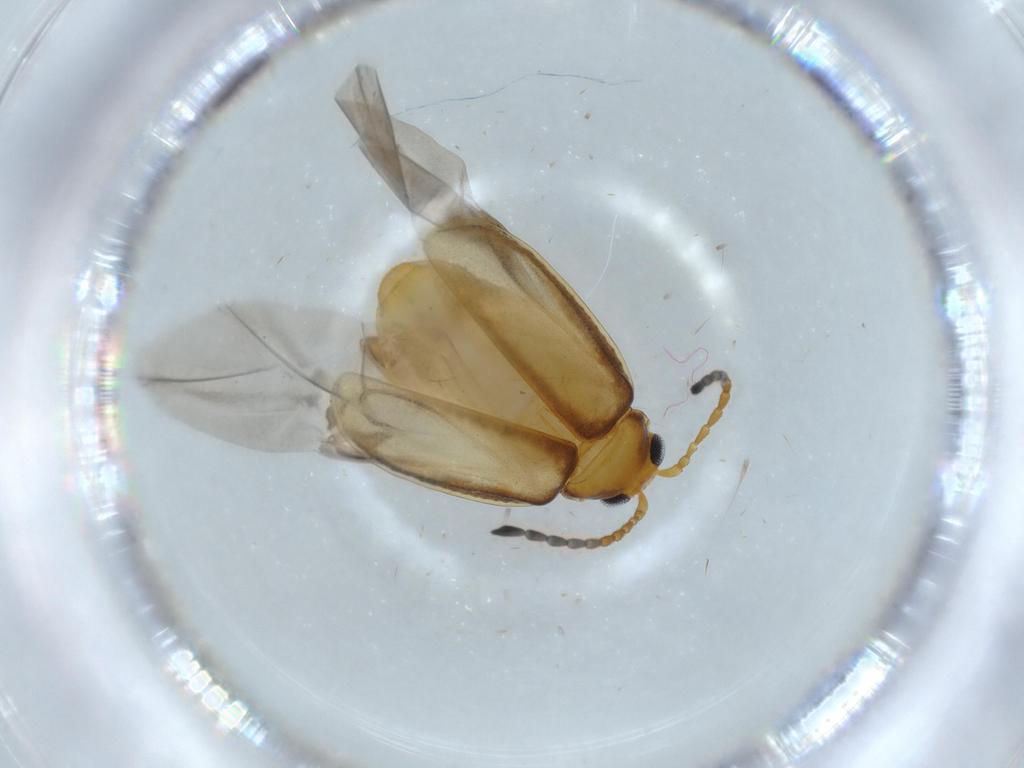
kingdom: Animalia
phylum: Arthropoda
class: Insecta
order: Coleoptera
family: Chrysomelidae
